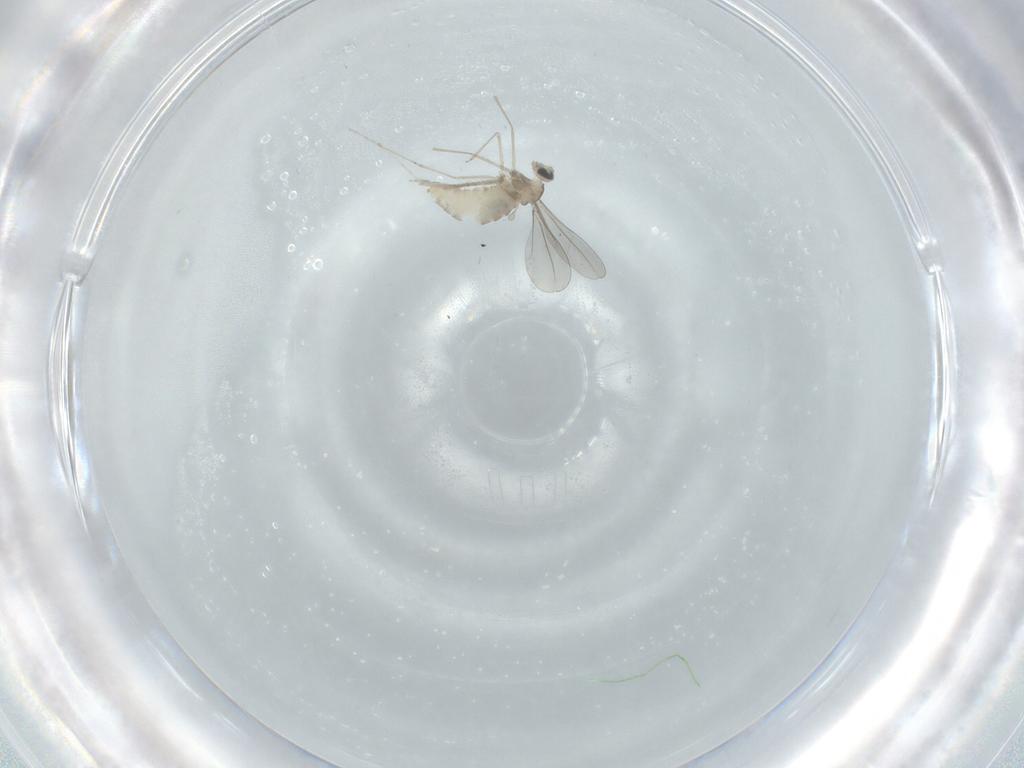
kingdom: Animalia
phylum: Arthropoda
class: Insecta
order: Diptera
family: Cecidomyiidae
